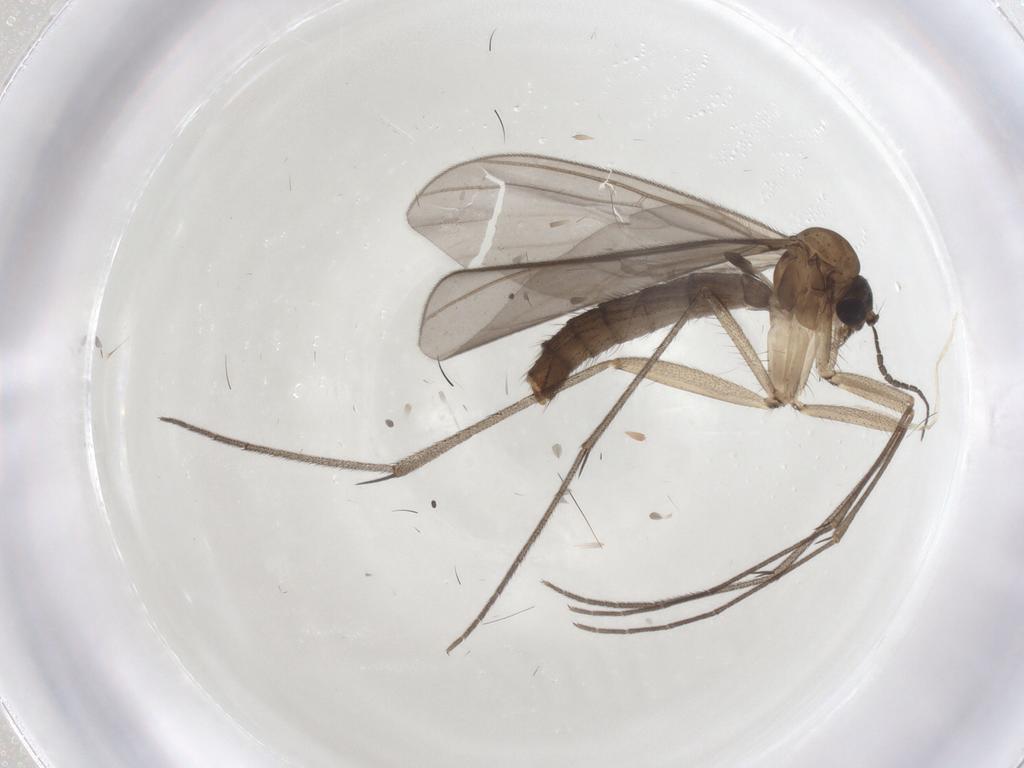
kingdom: Animalia
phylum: Arthropoda
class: Insecta
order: Diptera
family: Mycetophilidae
